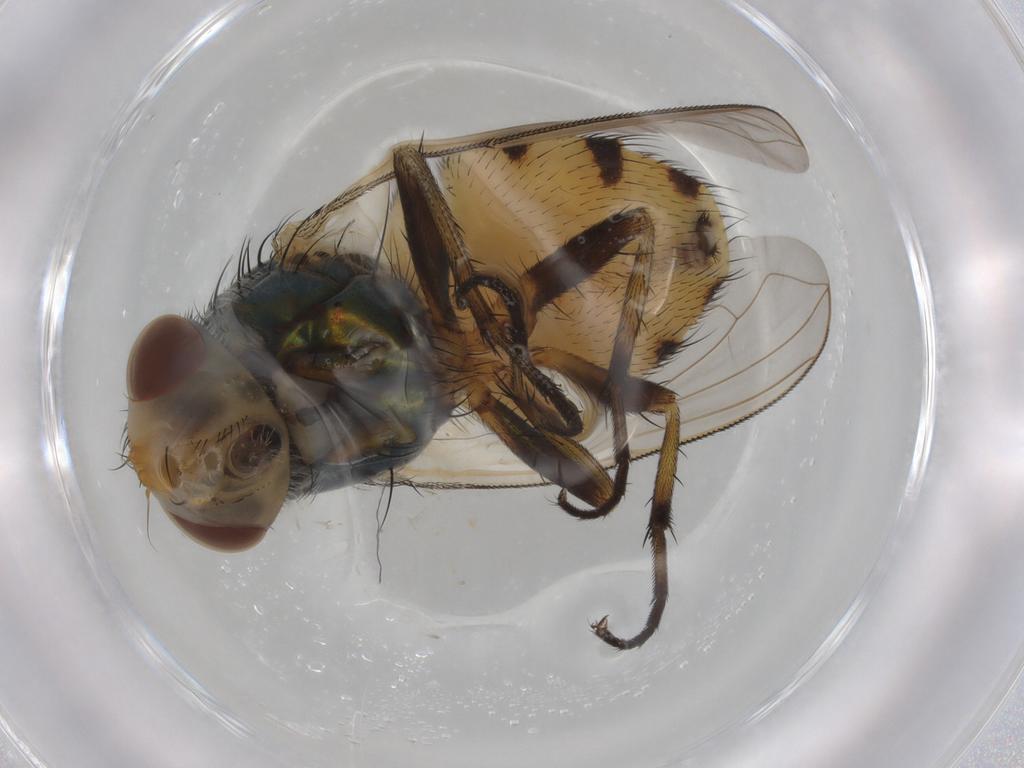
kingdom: Animalia
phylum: Arthropoda
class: Insecta
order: Diptera
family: Calliphoridae
